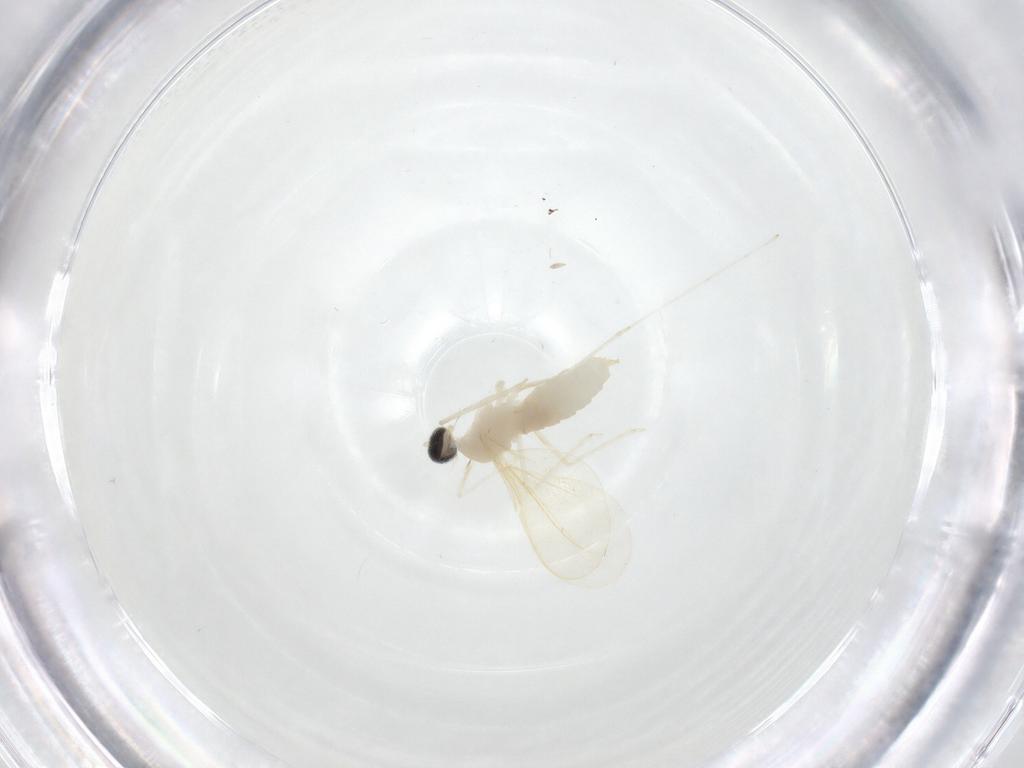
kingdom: Animalia
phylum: Arthropoda
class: Insecta
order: Diptera
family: Cecidomyiidae
